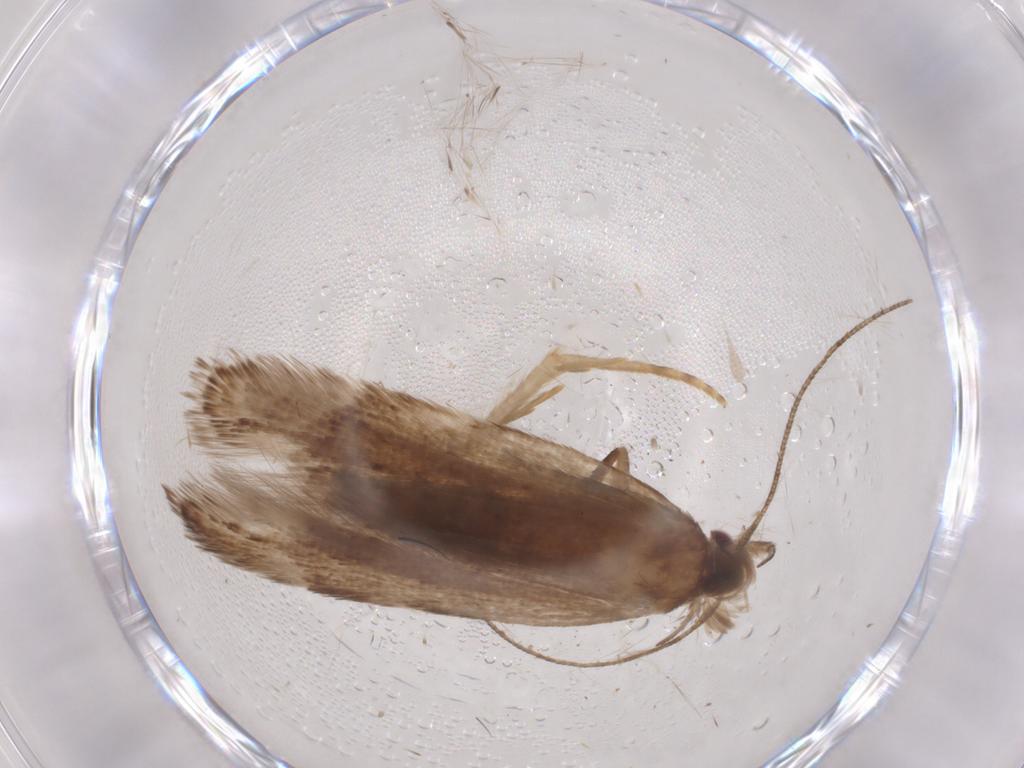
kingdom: Animalia
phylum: Arthropoda
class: Insecta
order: Lepidoptera
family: Gelechiidae
